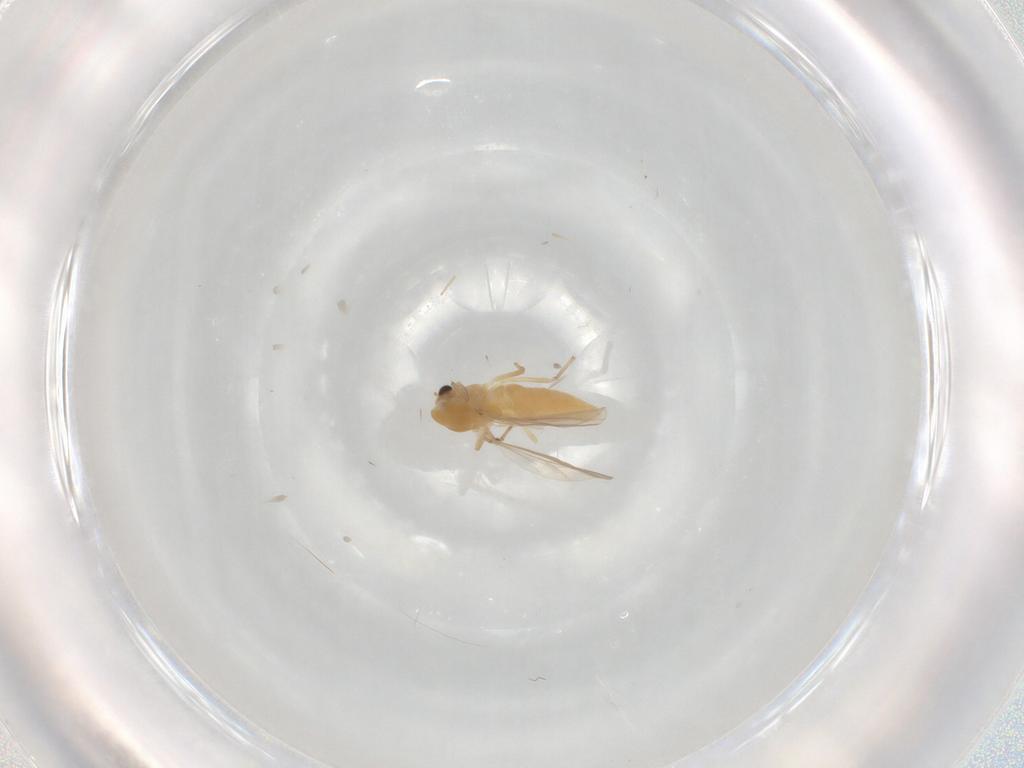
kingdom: Animalia
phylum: Arthropoda
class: Insecta
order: Diptera
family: Chironomidae
